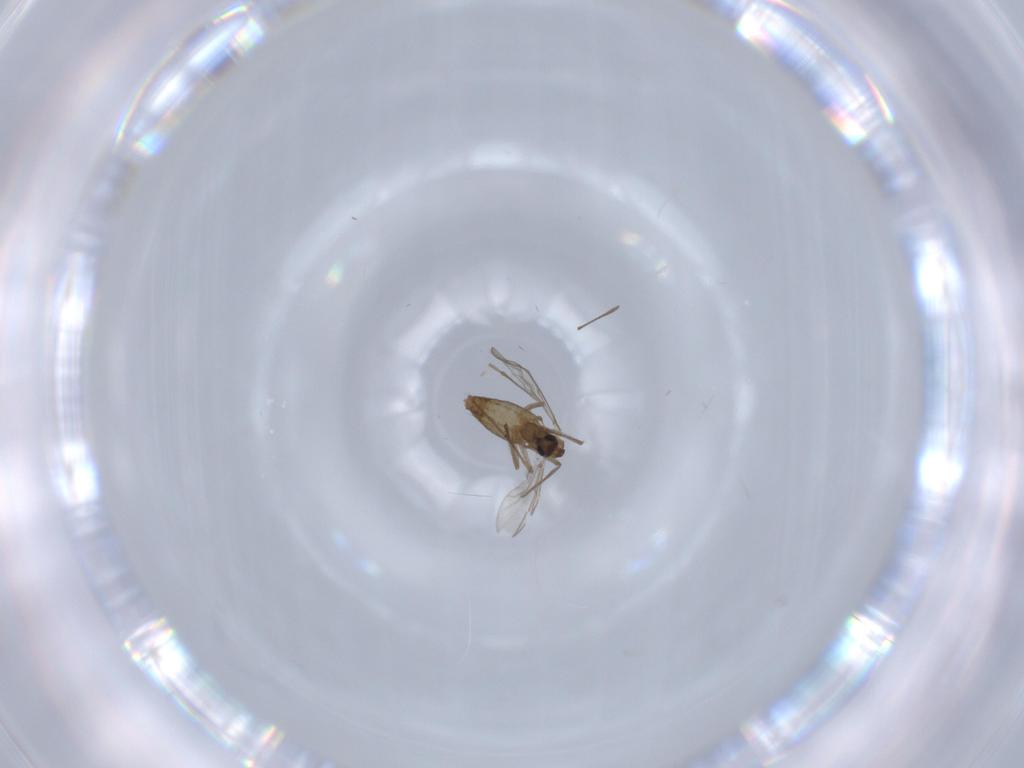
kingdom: Animalia
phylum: Arthropoda
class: Insecta
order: Diptera
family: Chironomidae
